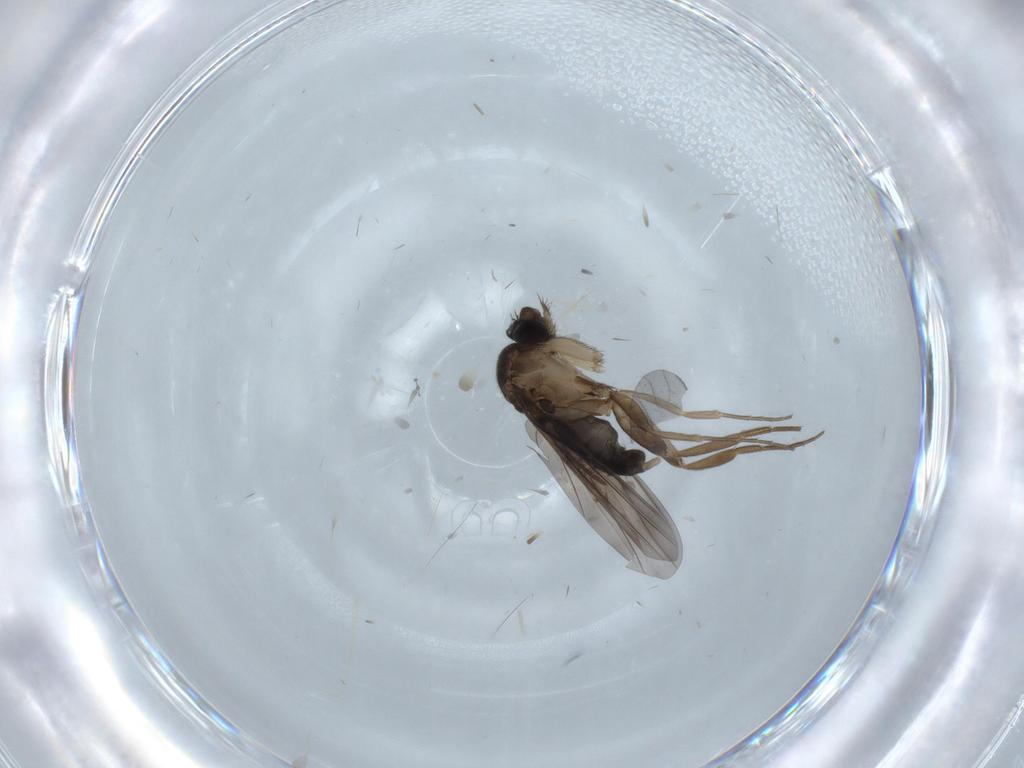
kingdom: Animalia
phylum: Arthropoda
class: Insecta
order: Diptera
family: Phoridae
